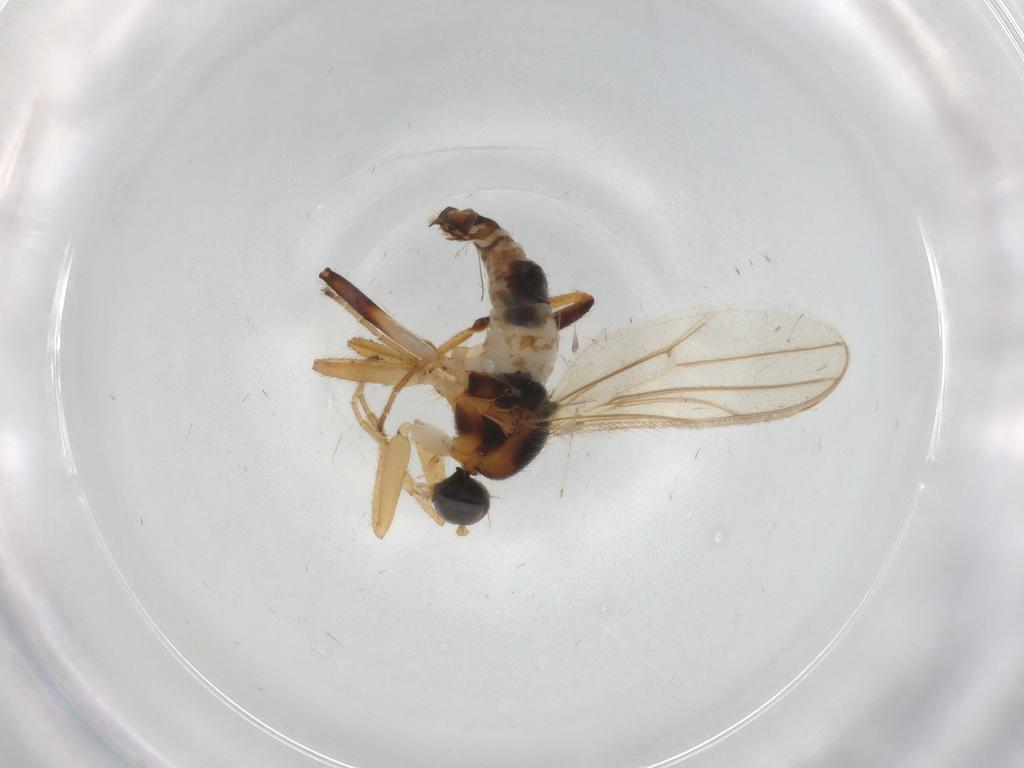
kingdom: Animalia
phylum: Arthropoda
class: Insecta
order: Diptera
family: Hybotidae
